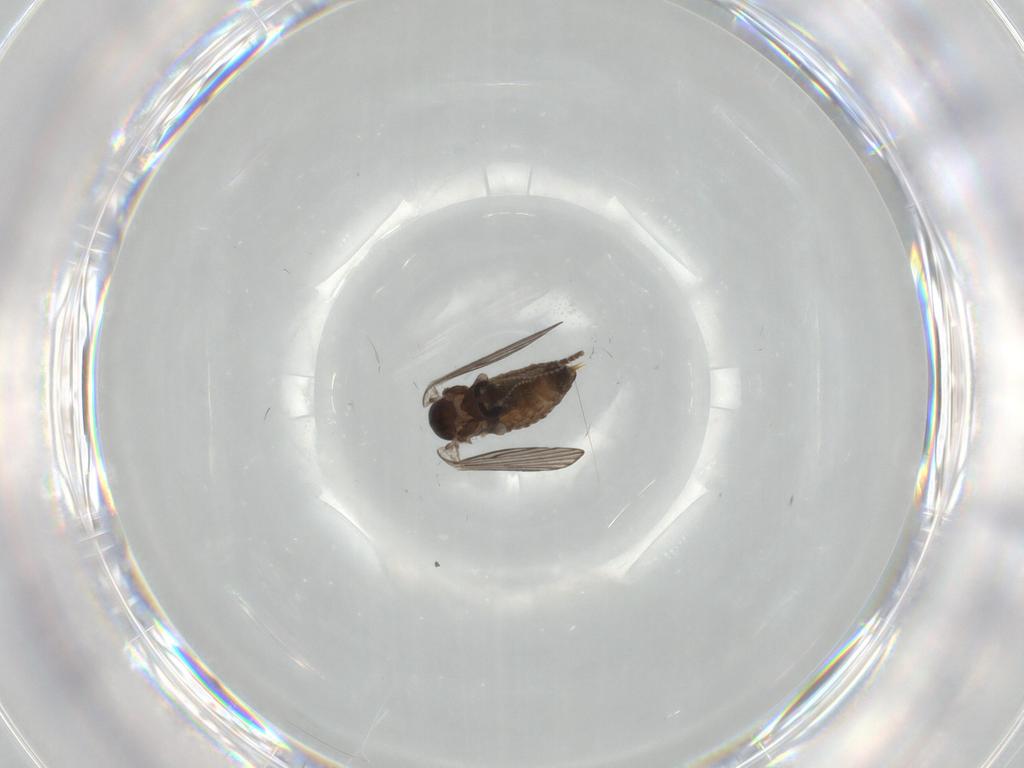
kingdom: Animalia
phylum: Arthropoda
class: Insecta
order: Diptera
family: Psychodidae
